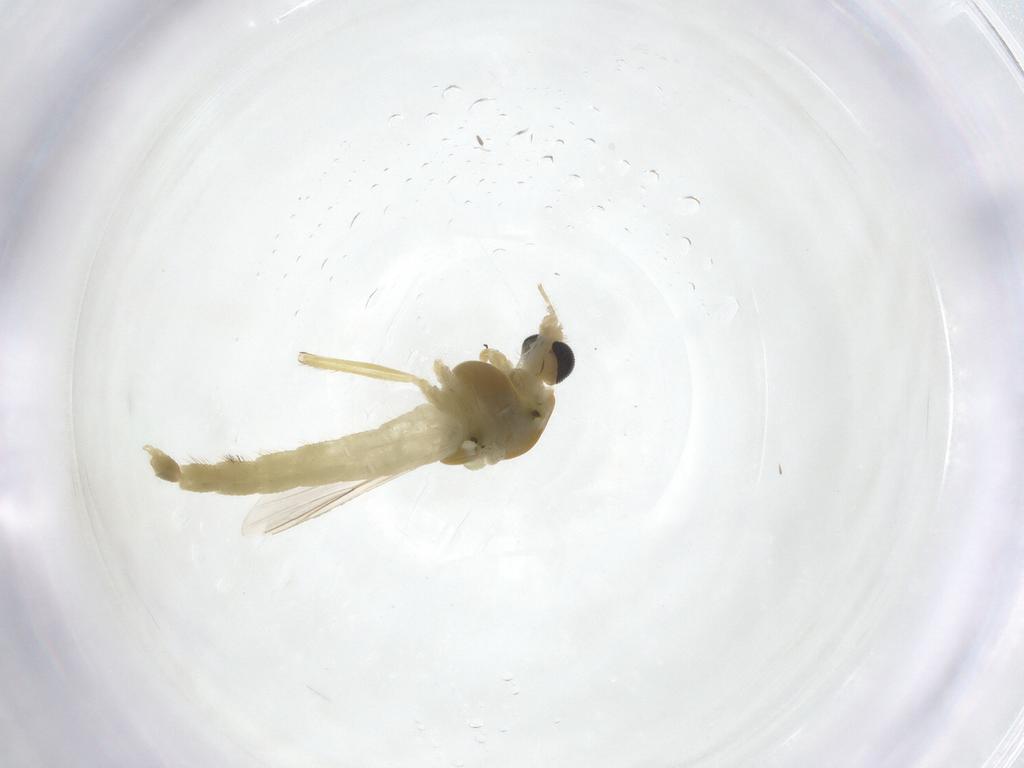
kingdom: Animalia
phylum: Arthropoda
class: Insecta
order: Diptera
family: Chironomidae
